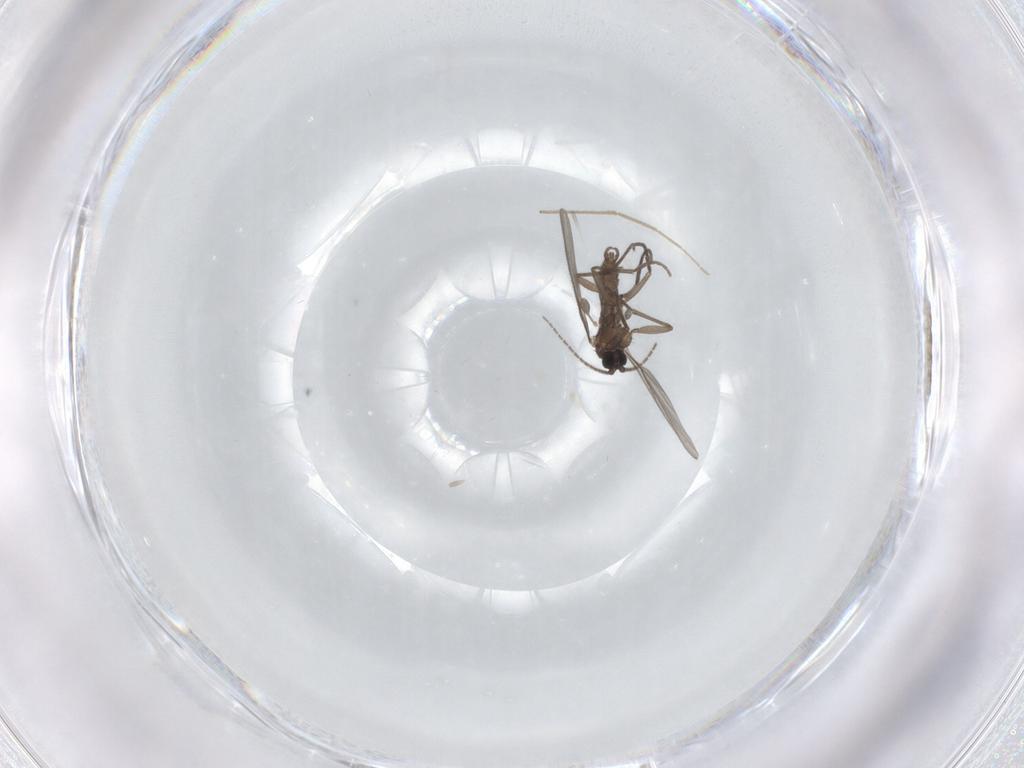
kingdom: Animalia
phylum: Arthropoda
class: Insecta
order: Diptera
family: Sciaridae
